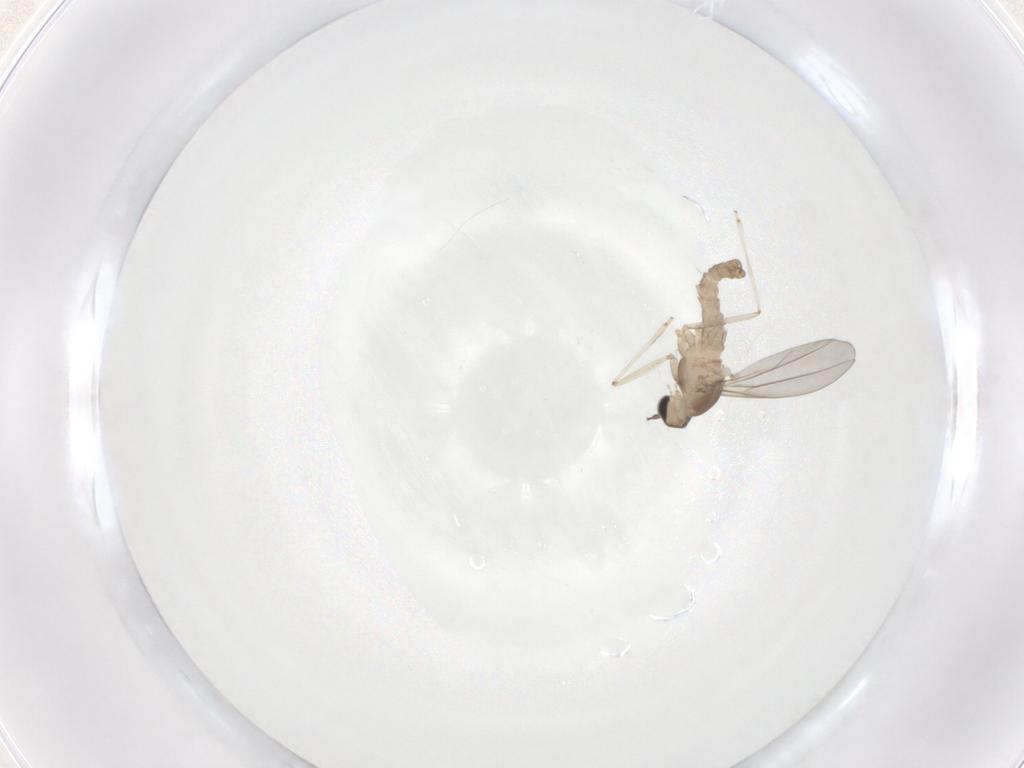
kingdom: Animalia
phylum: Arthropoda
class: Insecta
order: Diptera
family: Cecidomyiidae
